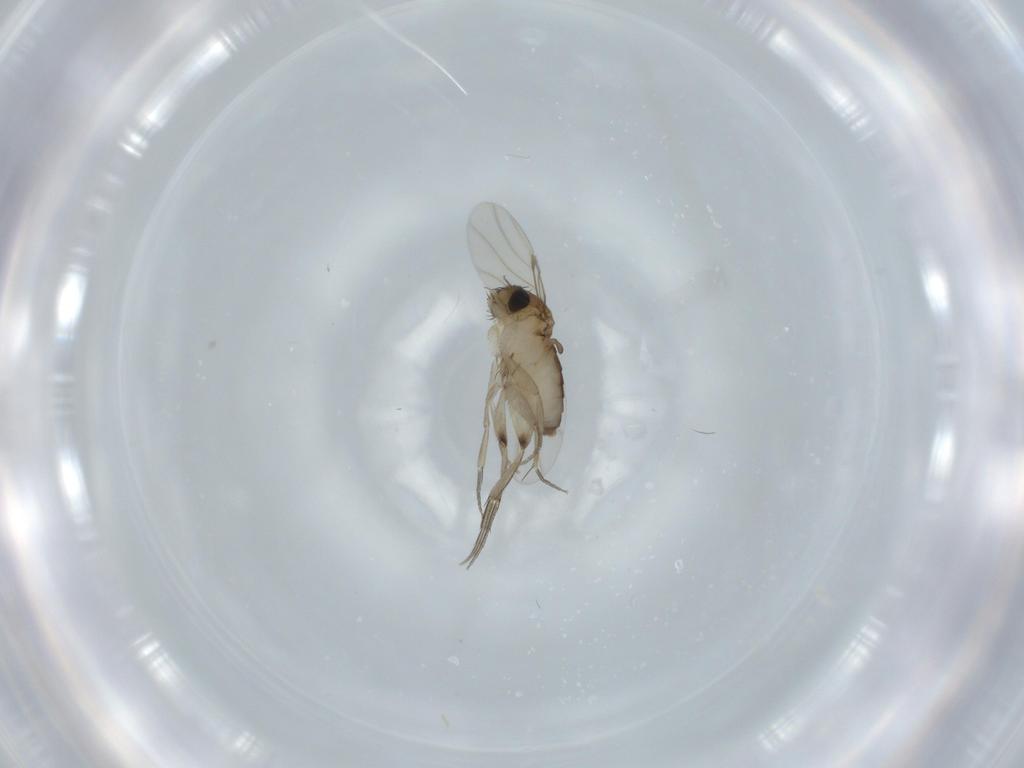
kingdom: Animalia
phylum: Arthropoda
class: Insecta
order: Diptera
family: Phoridae
